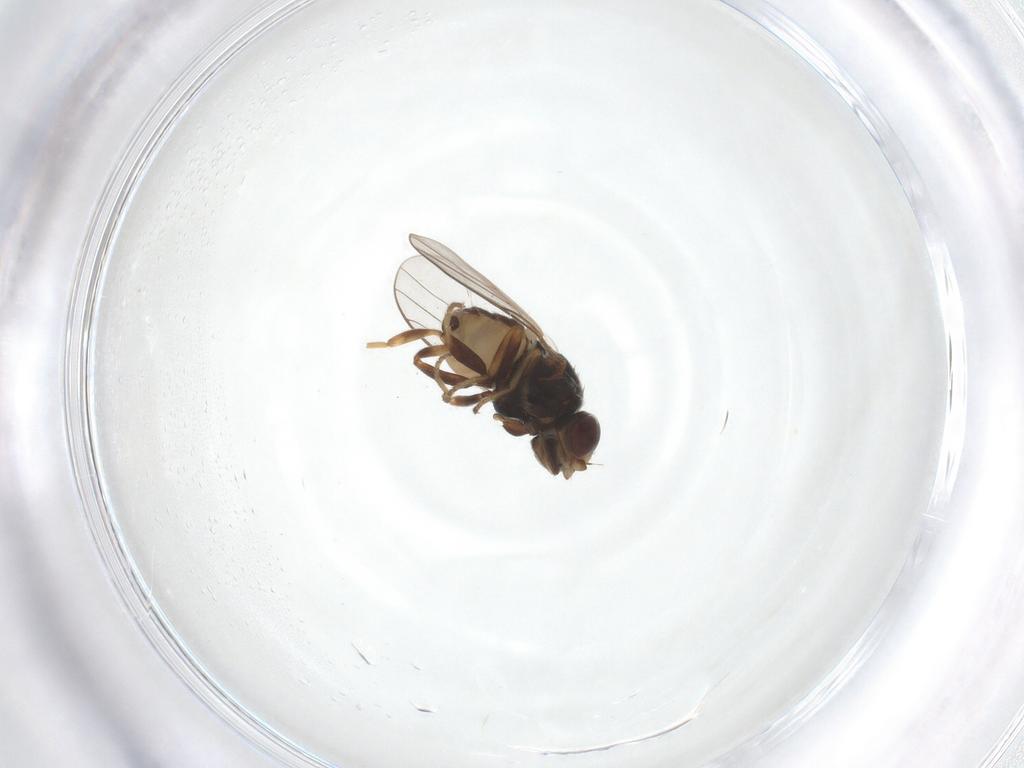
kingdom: Animalia
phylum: Arthropoda
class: Insecta
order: Diptera
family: Chloropidae
